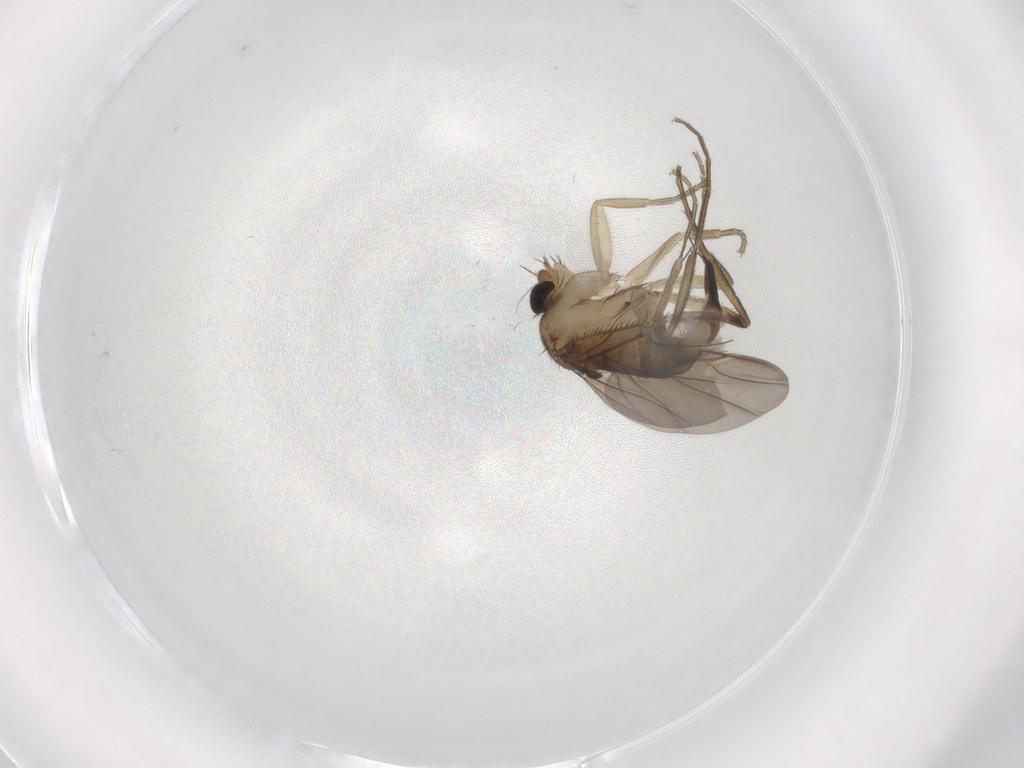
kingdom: Animalia
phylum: Arthropoda
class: Insecta
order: Diptera
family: Phoridae
